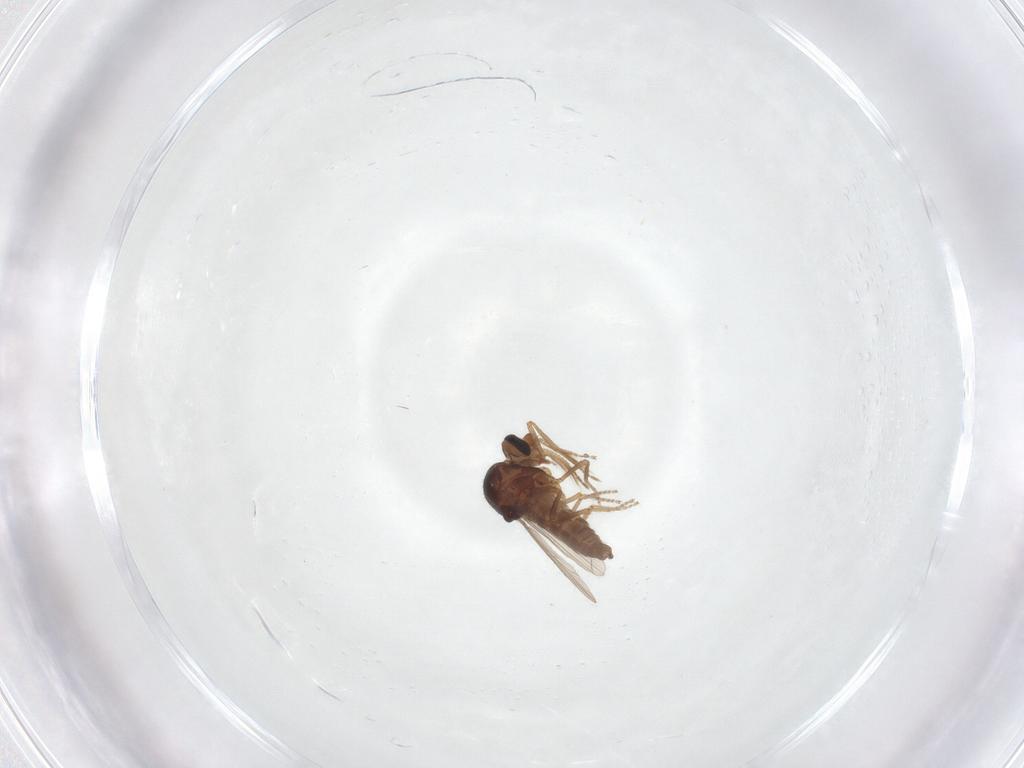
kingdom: Animalia
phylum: Arthropoda
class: Insecta
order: Diptera
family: Ceratopogonidae
